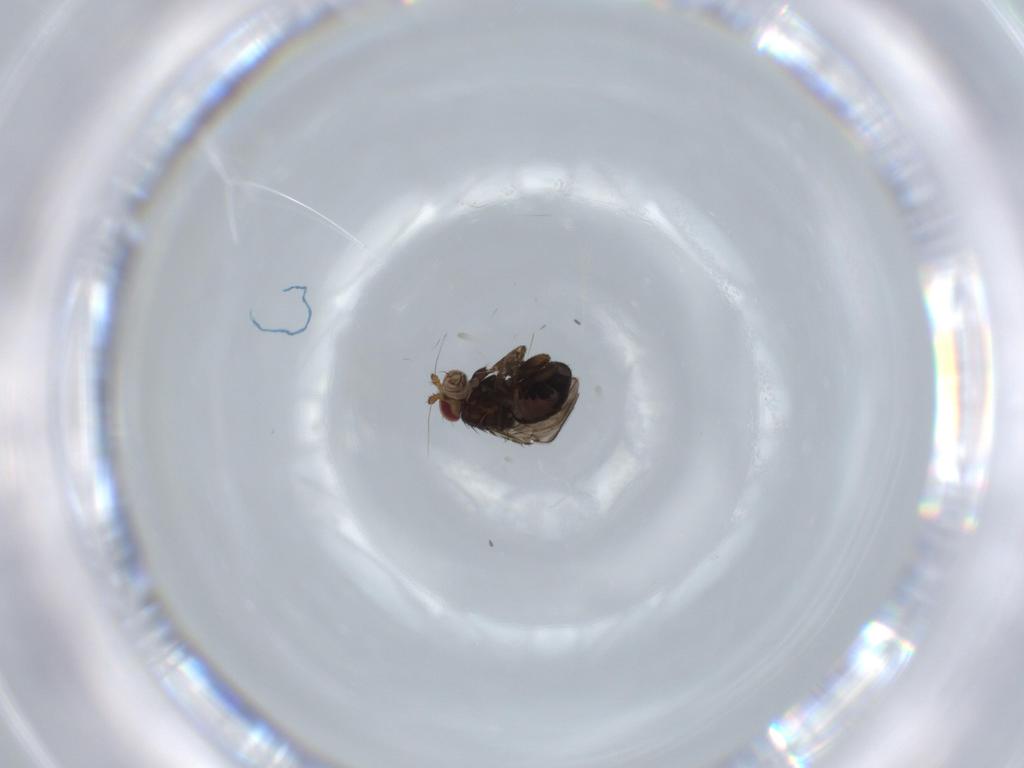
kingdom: Animalia
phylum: Arthropoda
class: Insecta
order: Diptera
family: Sphaeroceridae
